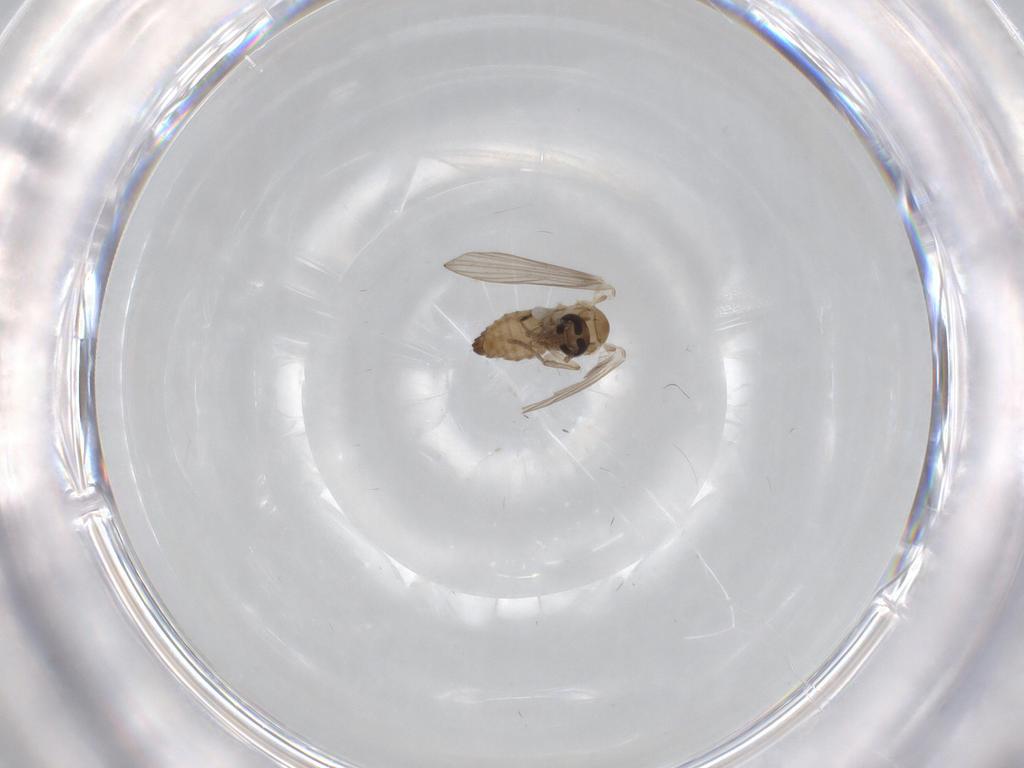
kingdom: Animalia
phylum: Arthropoda
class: Insecta
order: Diptera
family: Psychodidae
